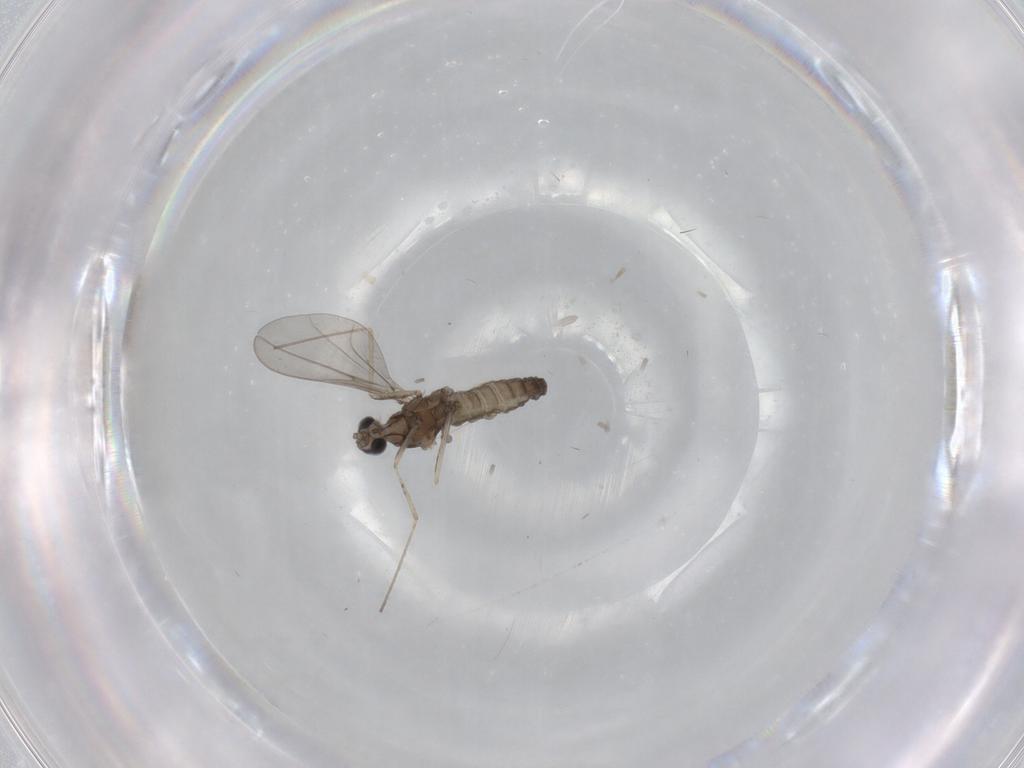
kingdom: Animalia
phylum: Arthropoda
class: Insecta
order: Diptera
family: Cecidomyiidae
